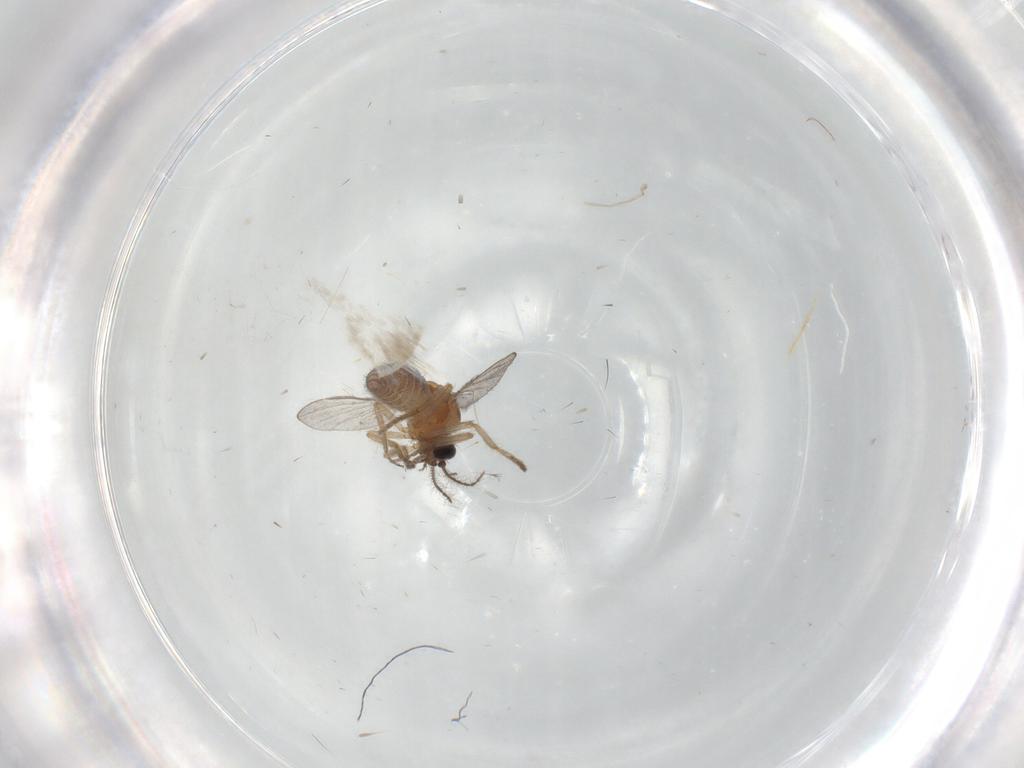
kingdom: Animalia
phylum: Arthropoda
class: Insecta
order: Diptera
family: Ceratopogonidae
